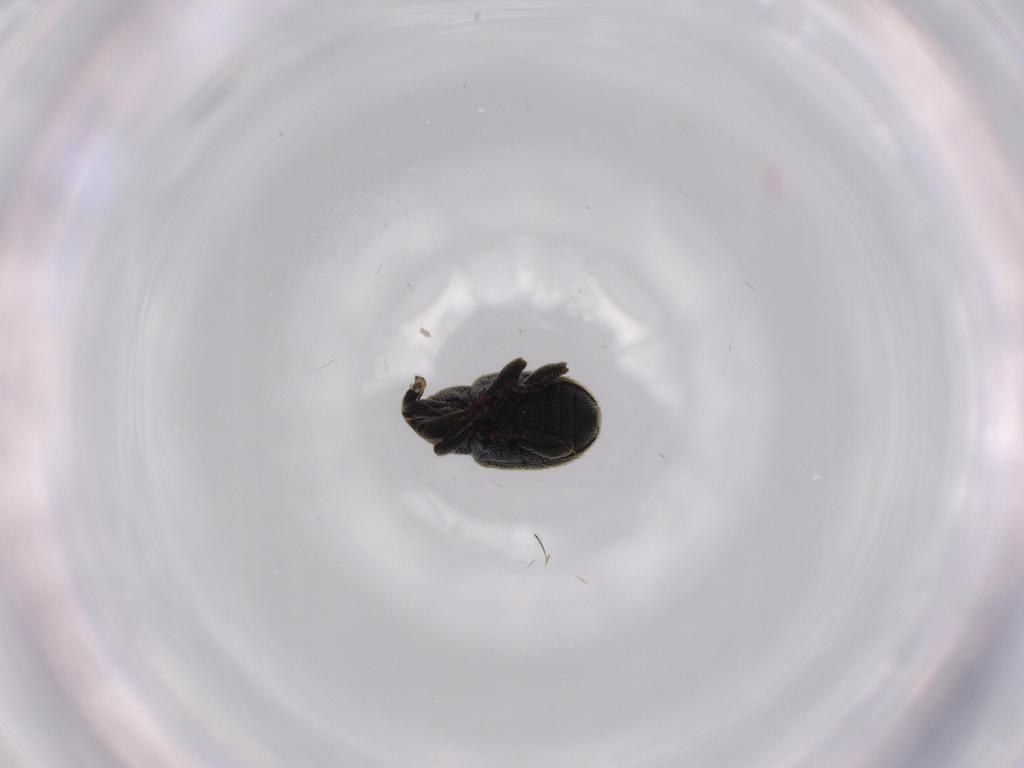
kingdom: Animalia
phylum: Arthropoda
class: Insecta
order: Coleoptera
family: Curculionidae
